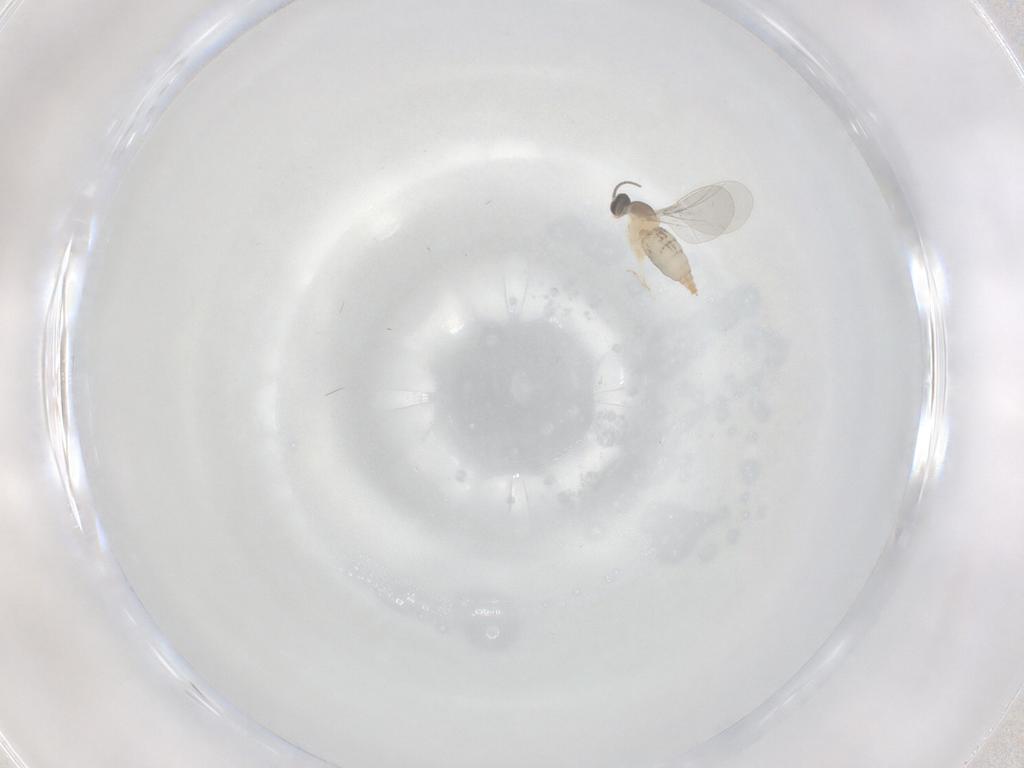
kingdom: Animalia
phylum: Arthropoda
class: Insecta
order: Diptera
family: Cecidomyiidae
